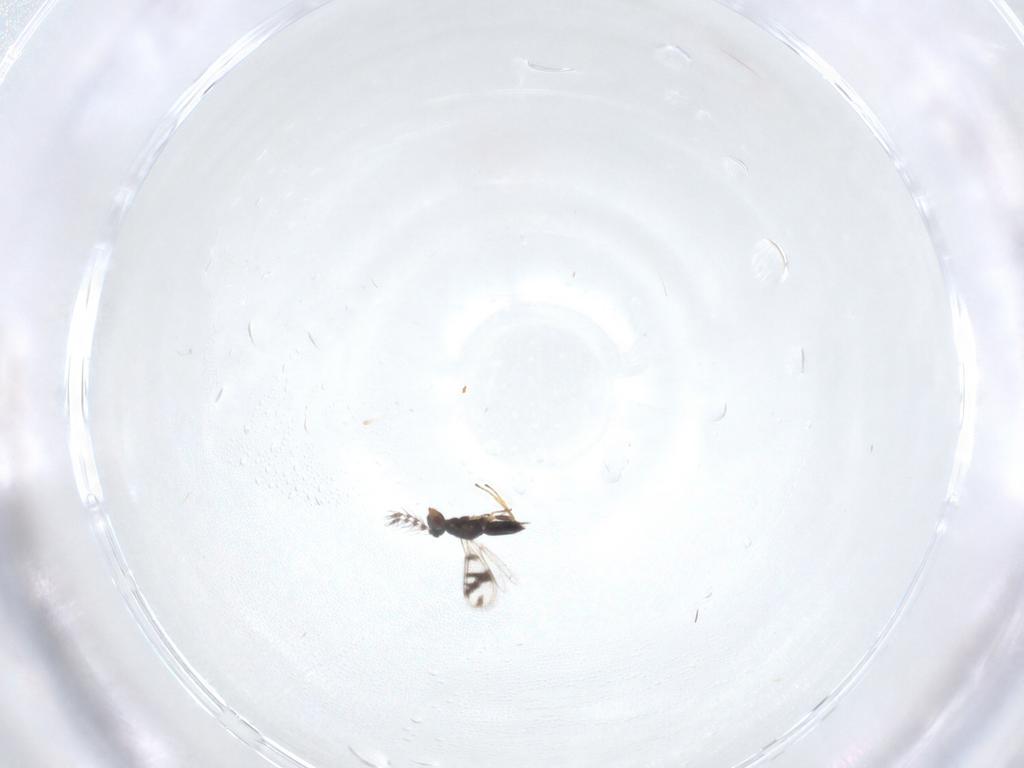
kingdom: Animalia
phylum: Arthropoda
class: Insecta
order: Hymenoptera
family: Eulophidae
